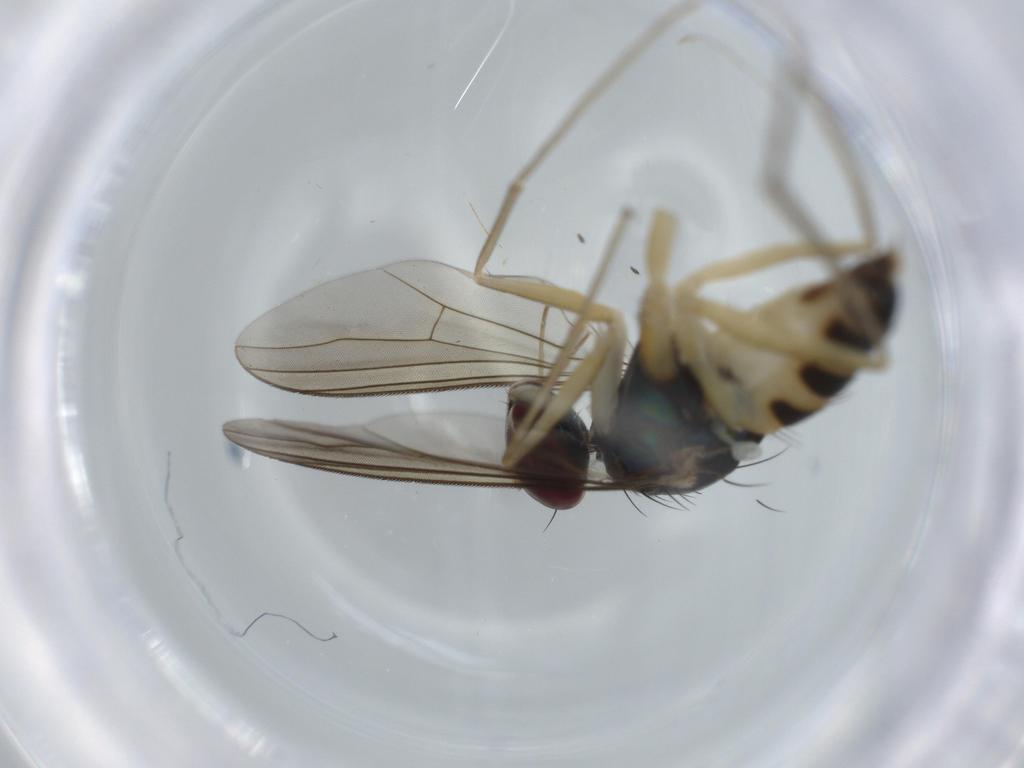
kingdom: Animalia
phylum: Arthropoda
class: Insecta
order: Diptera
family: Dolichopodidae
